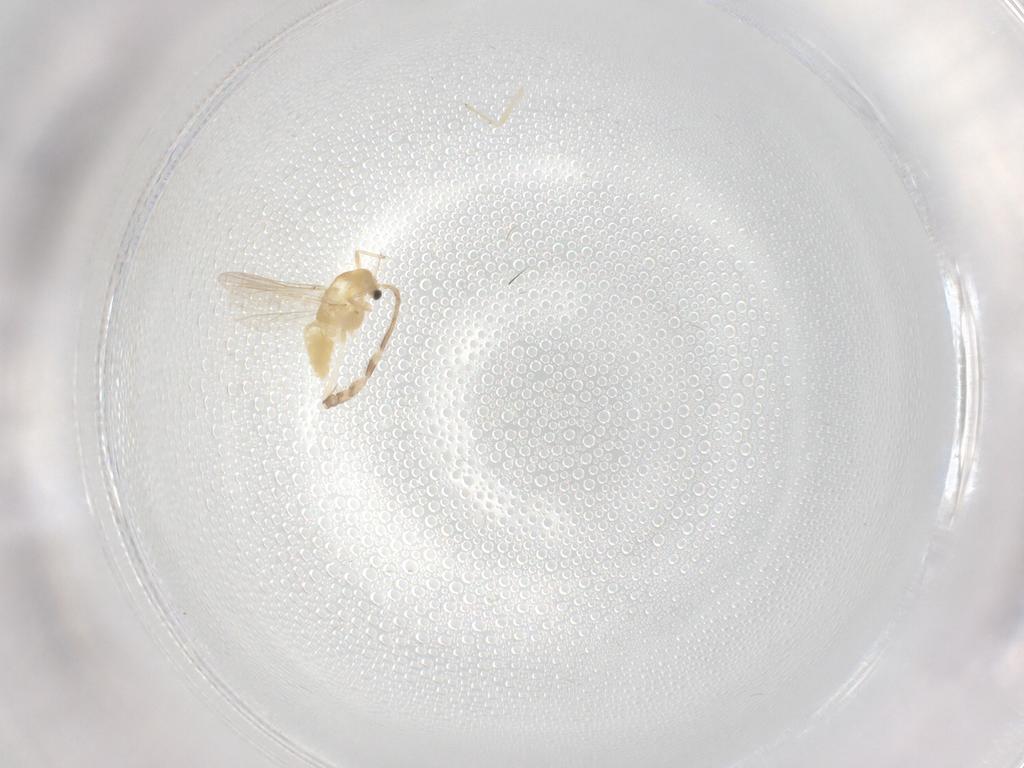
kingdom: Animalia
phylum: Arthropoda
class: Insecta
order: Diptera
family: Chironomidae
